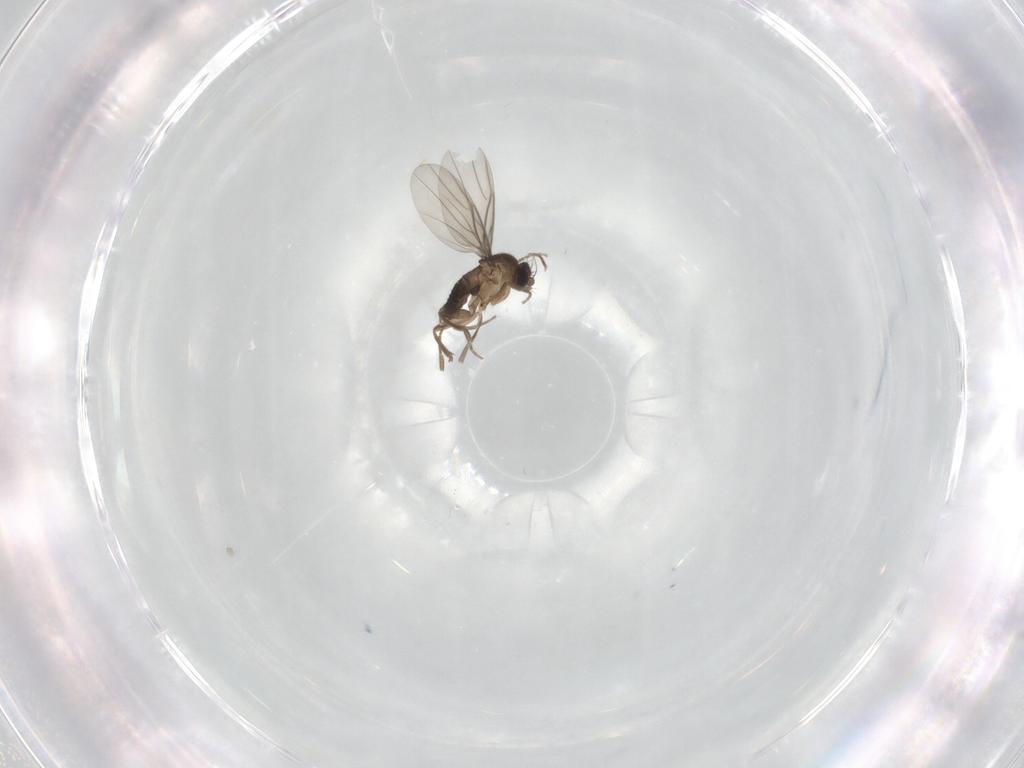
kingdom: Animalia
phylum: Arthropoda
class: Insecta
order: Diptera
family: Phoridae
